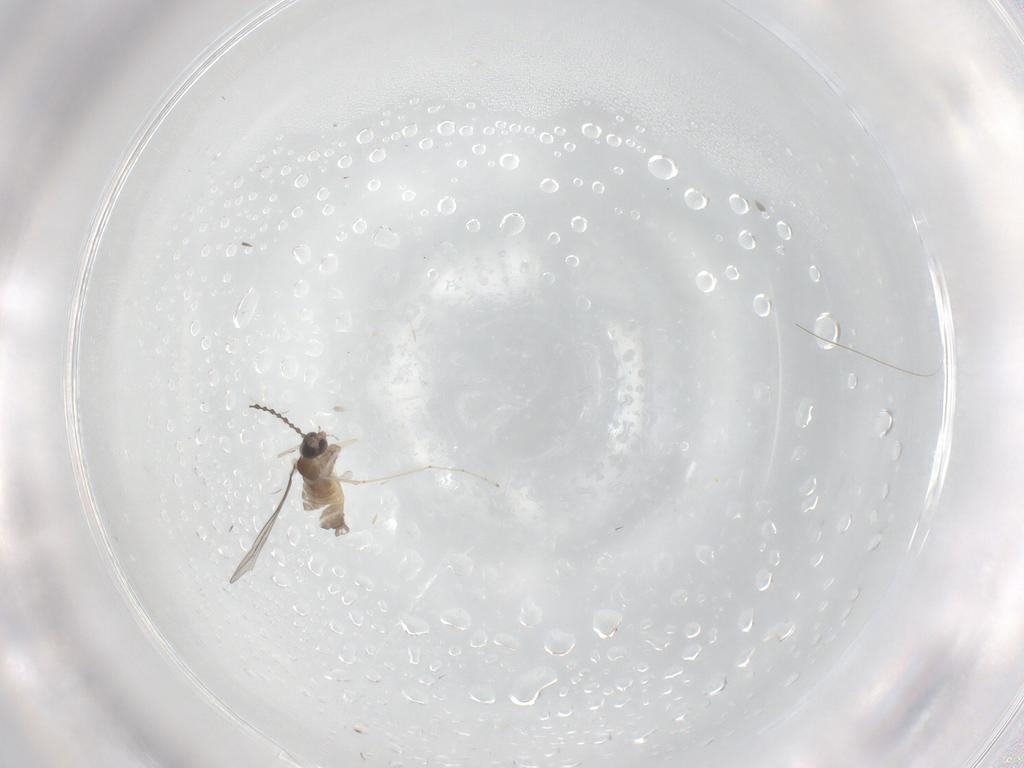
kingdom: Animalia
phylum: Arthropoda
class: Insecta
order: Diptera
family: Cecidomyiidae
